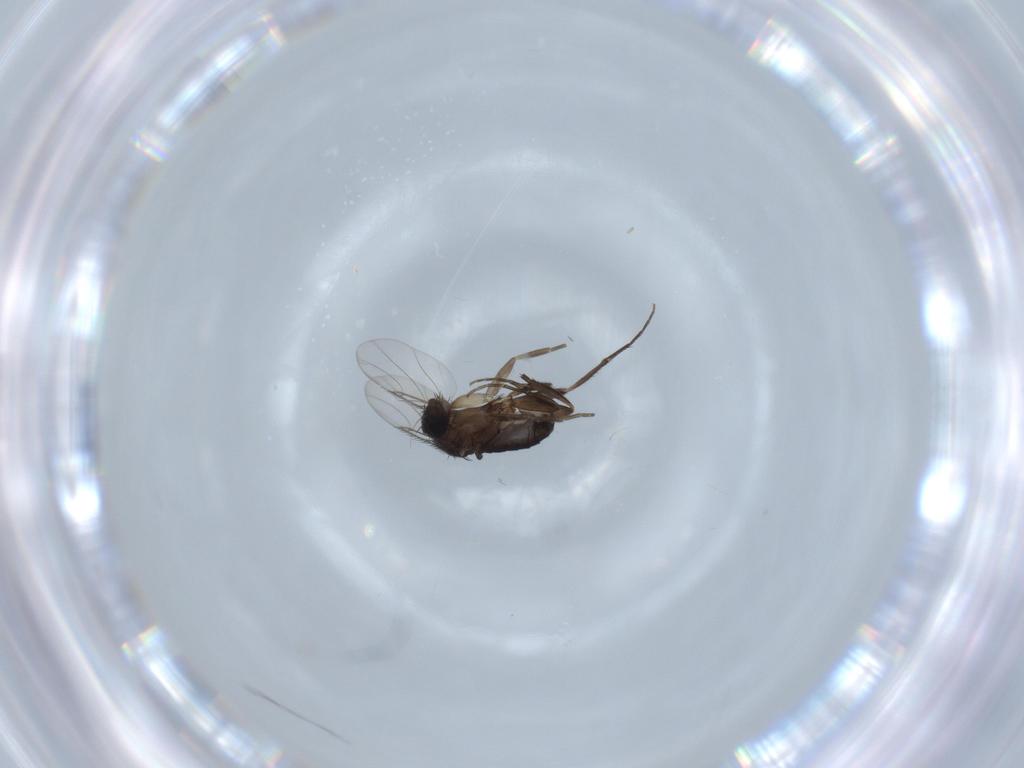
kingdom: Animalia
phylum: Arthropoda
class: Insecta
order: Diptera
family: Phoridae
